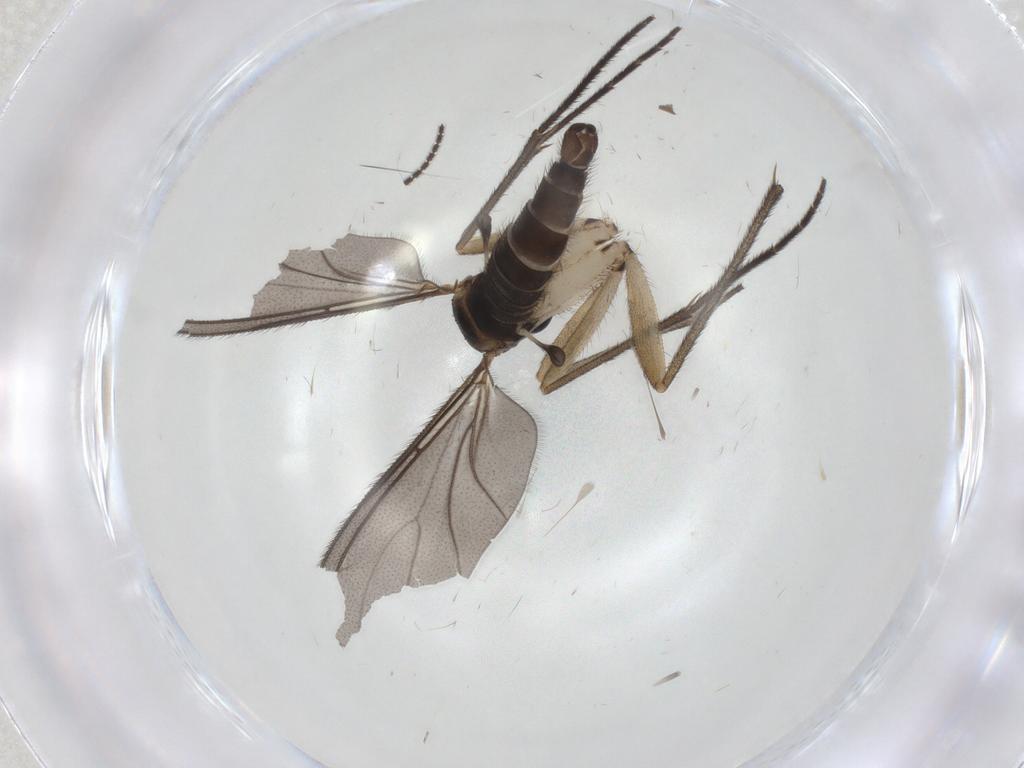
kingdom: Animalia
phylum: Arthropoda
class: Insecta
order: Diptera
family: Sciaridae
